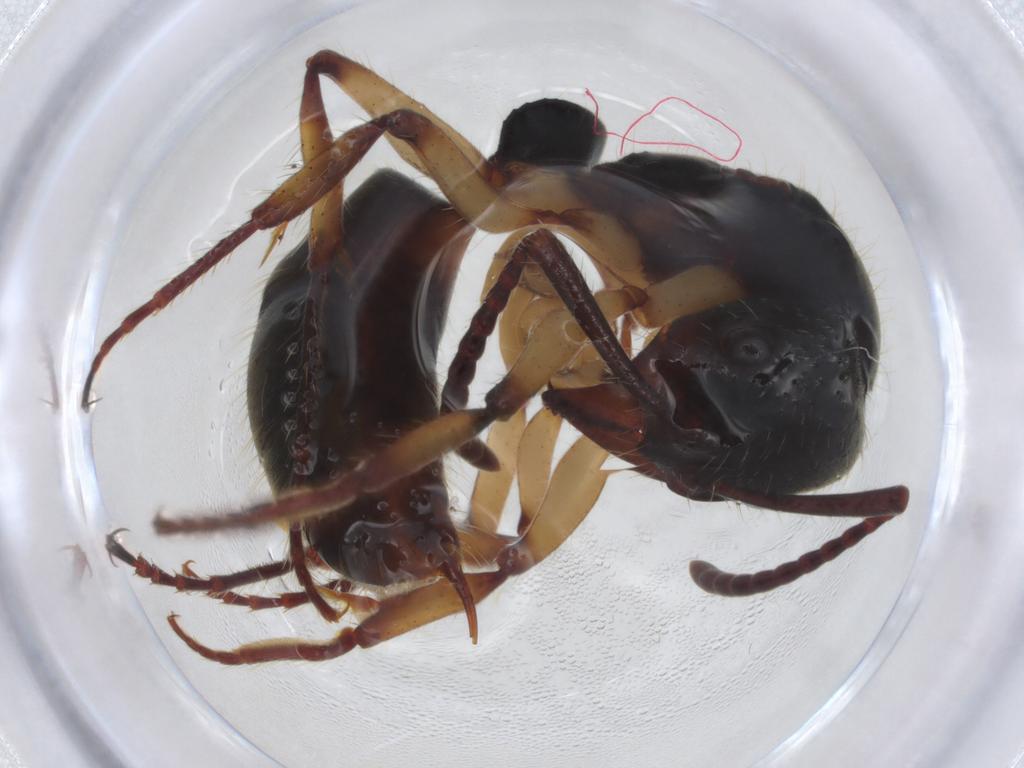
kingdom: Animalia
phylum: Arthropoda
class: Insecta
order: Hymenoptera
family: Formicidae
